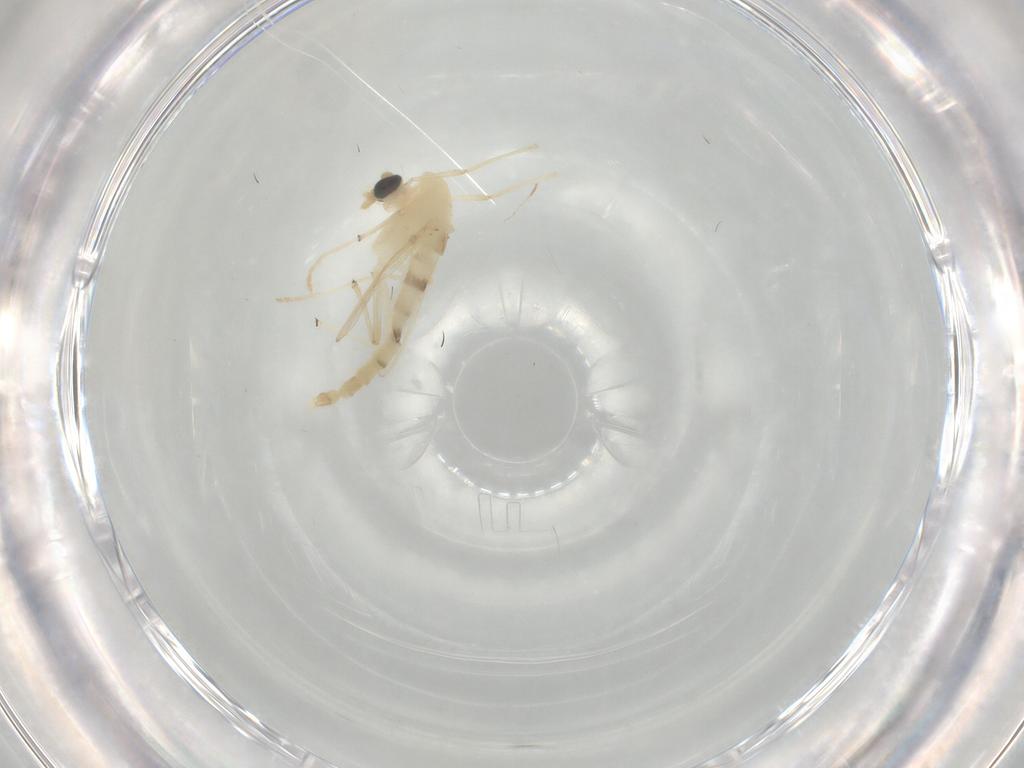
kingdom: Animalia
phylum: Arthropoda
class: Insecta
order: Diptera
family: Chironomidae
